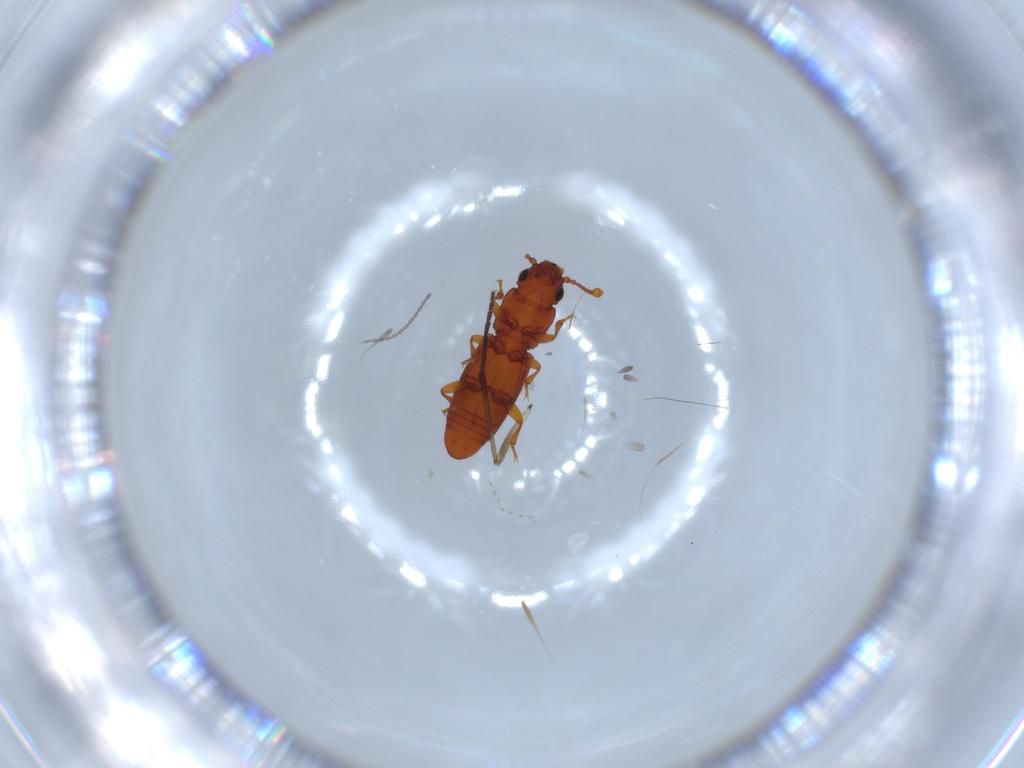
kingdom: Animalia
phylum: Arthropoda
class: Insecta
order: Coleoptera
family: Monotomidae
